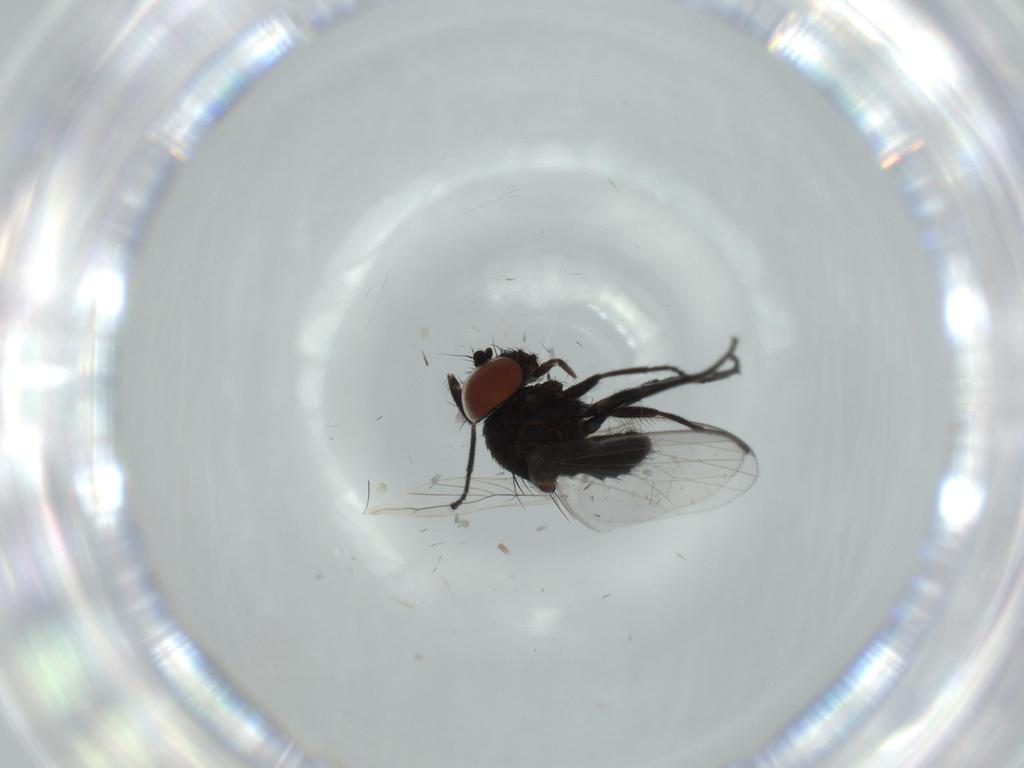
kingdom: Animalia
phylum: Arthropoda
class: Insecta
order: Diptera
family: Milichiidae
